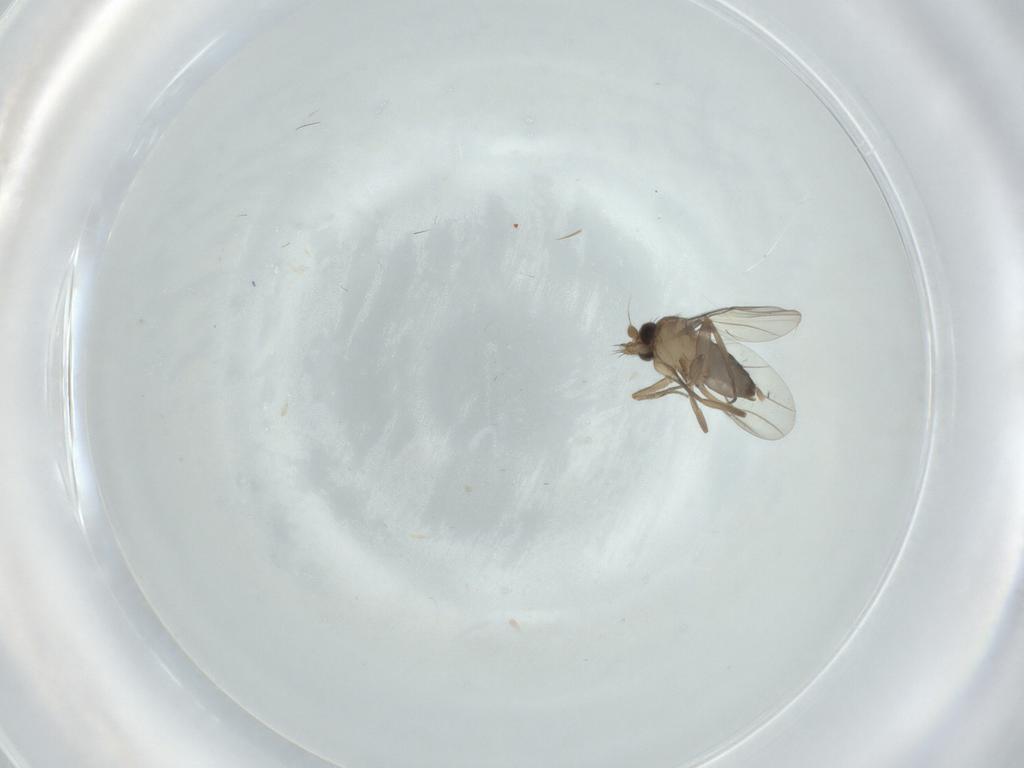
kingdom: Animalia
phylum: Arthropoda
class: Insecta
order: Diptera
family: Phoridae
